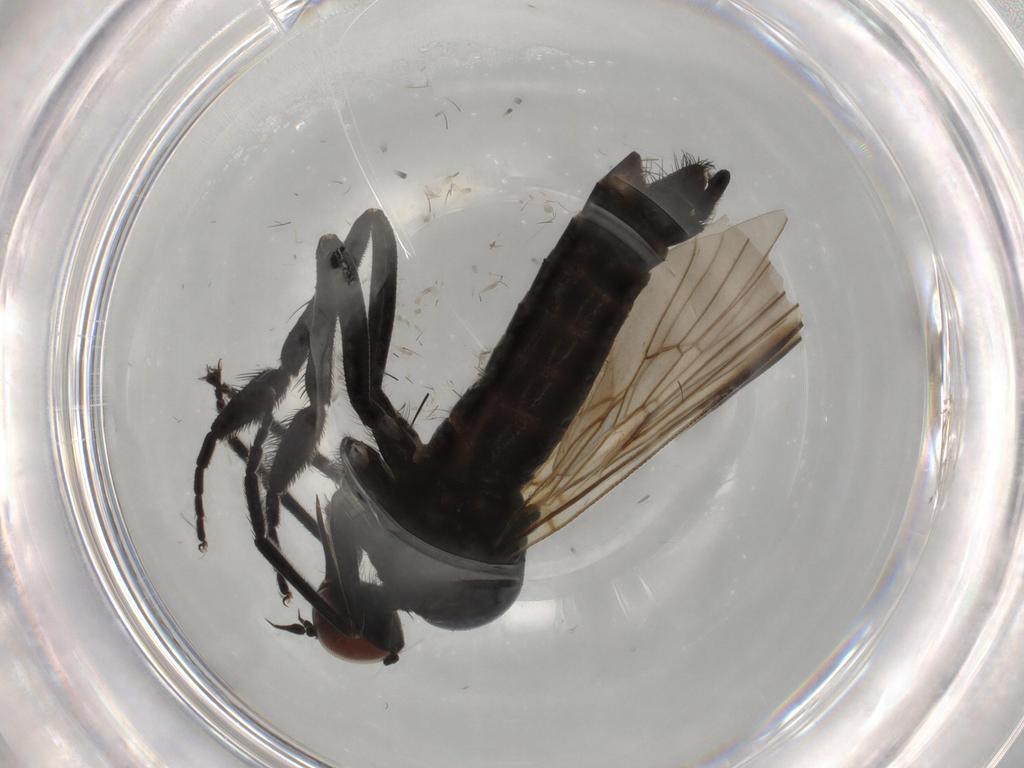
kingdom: Animalia
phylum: Arthropoda
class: Insecta
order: Diptera
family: Empididae
